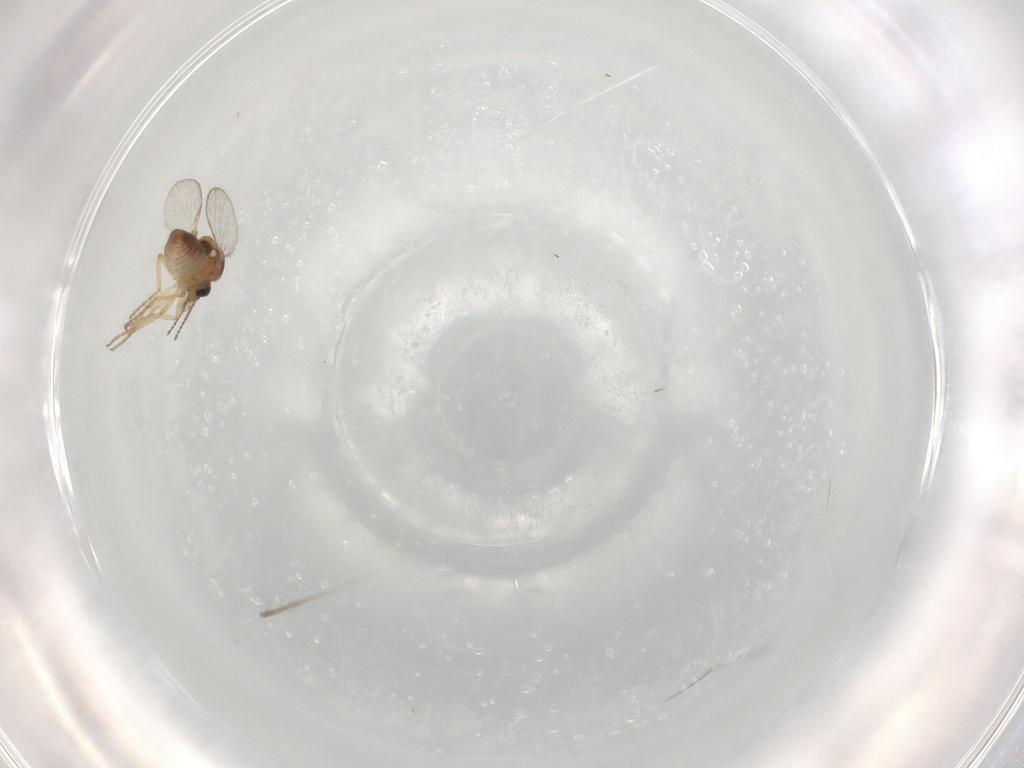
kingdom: Animalia
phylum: Arthropoda
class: Insecta
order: Diptera
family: Ceratopogonidae
